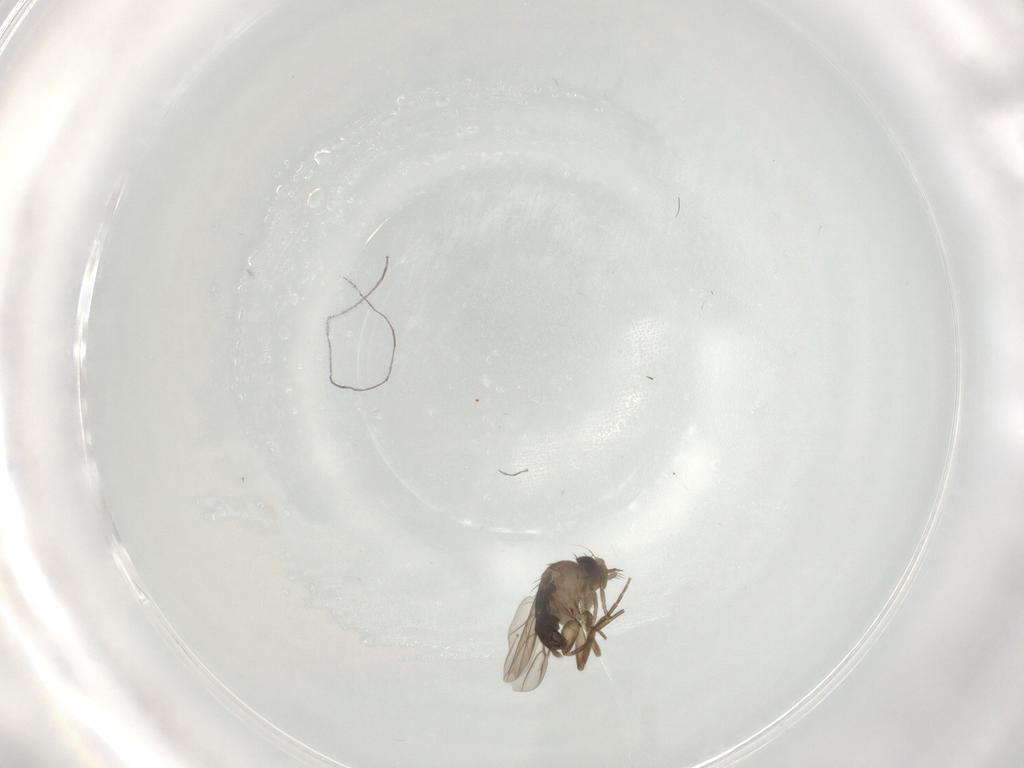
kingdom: Animalia
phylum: Arthropoda
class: Insecta
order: Diptera
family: Phoridae
